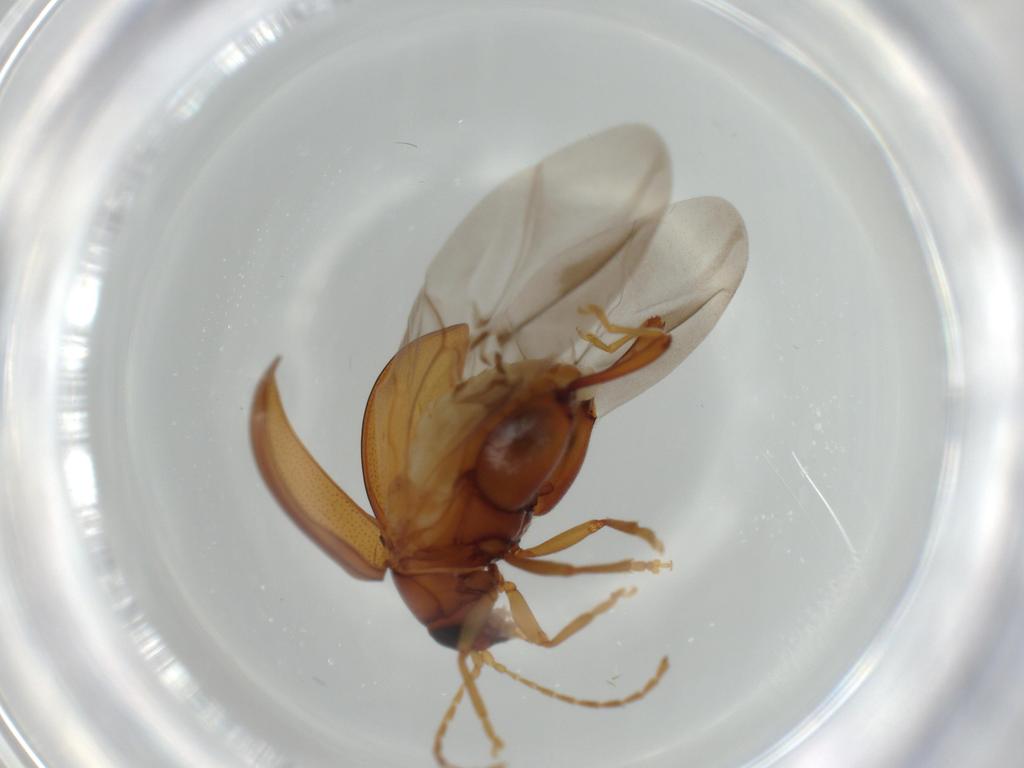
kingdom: Animalia
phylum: Arthropoda
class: Insecta
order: Coleoptera
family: Chrysomelidae
